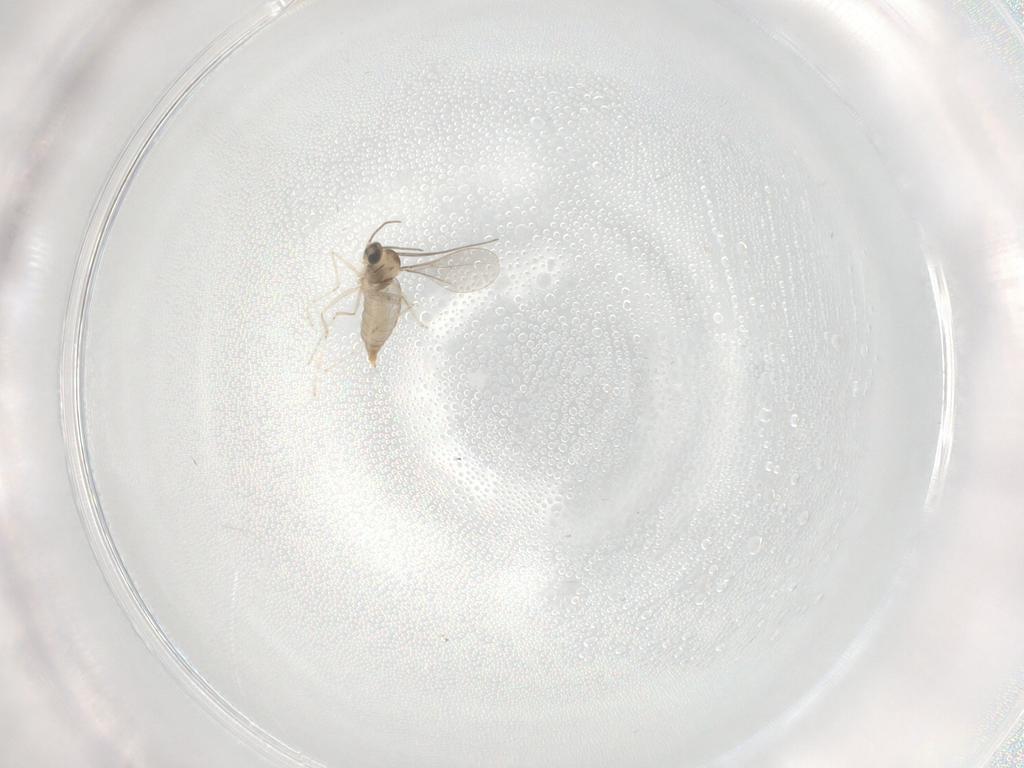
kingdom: Animalia
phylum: Arthropoda
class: Insecta
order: Diptera
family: Cecidomyiidae
